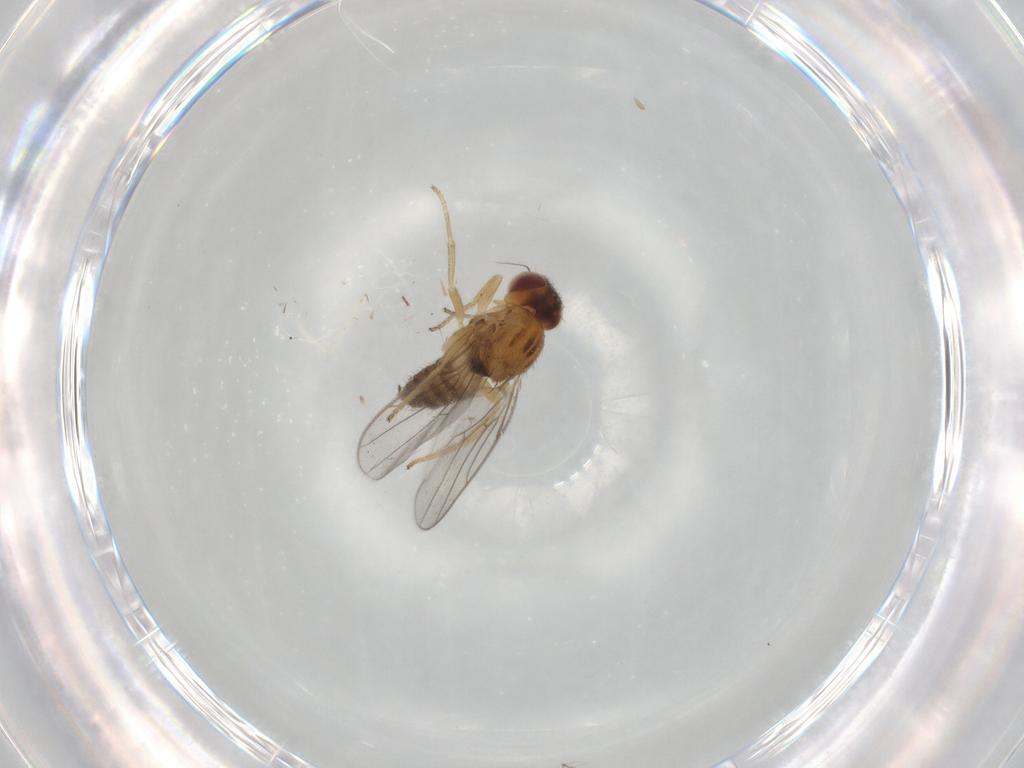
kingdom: Animalia
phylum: Arthropoda
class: Insecta
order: Diptera
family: Chloropidae
